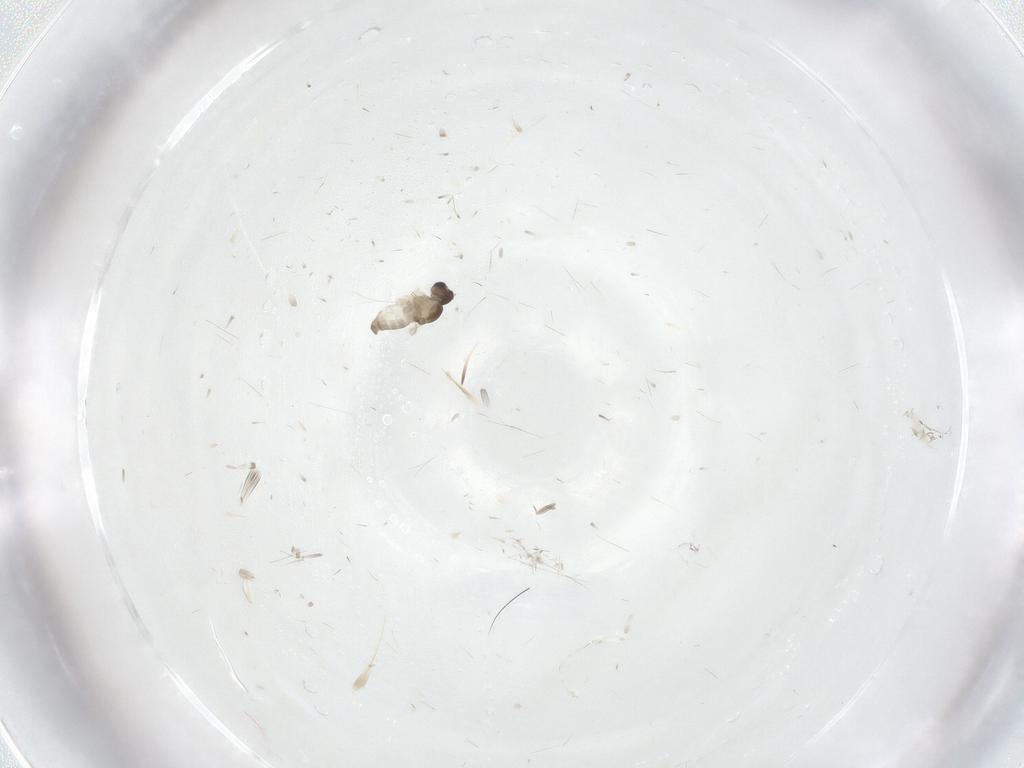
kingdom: Animalia
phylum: Arthropoda
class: Insecta
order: Diptera
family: Cecidomyiidae
